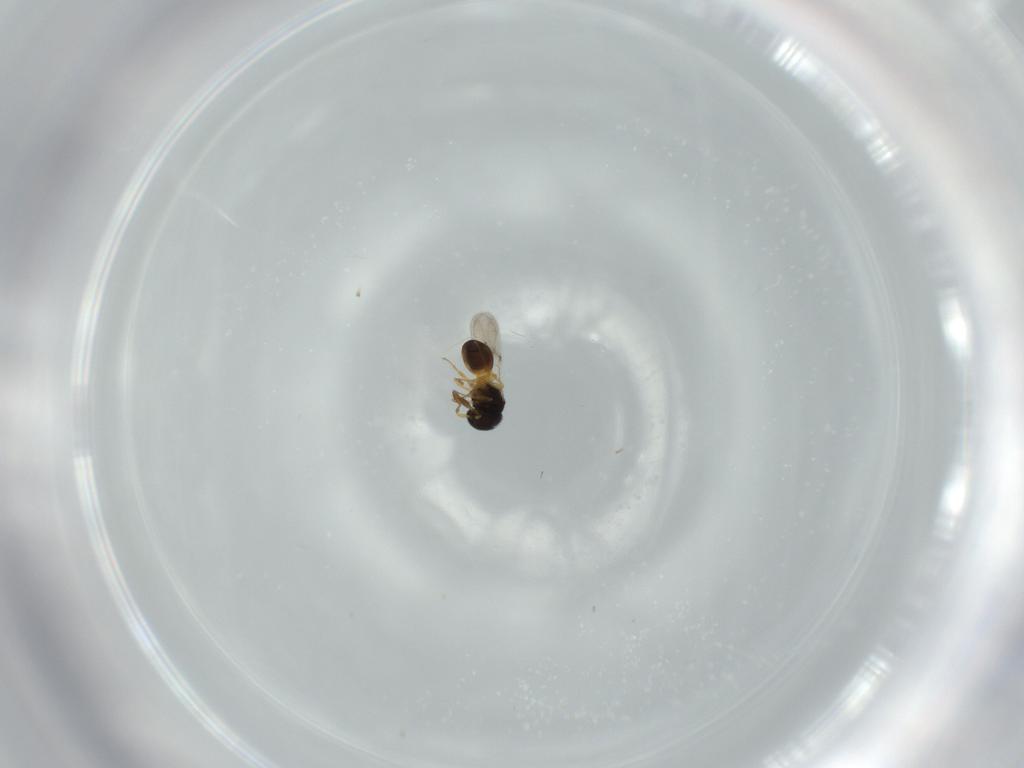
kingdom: Animalia
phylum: Arthropoda
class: Insecta
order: Hymenoptera
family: Scelionidae
